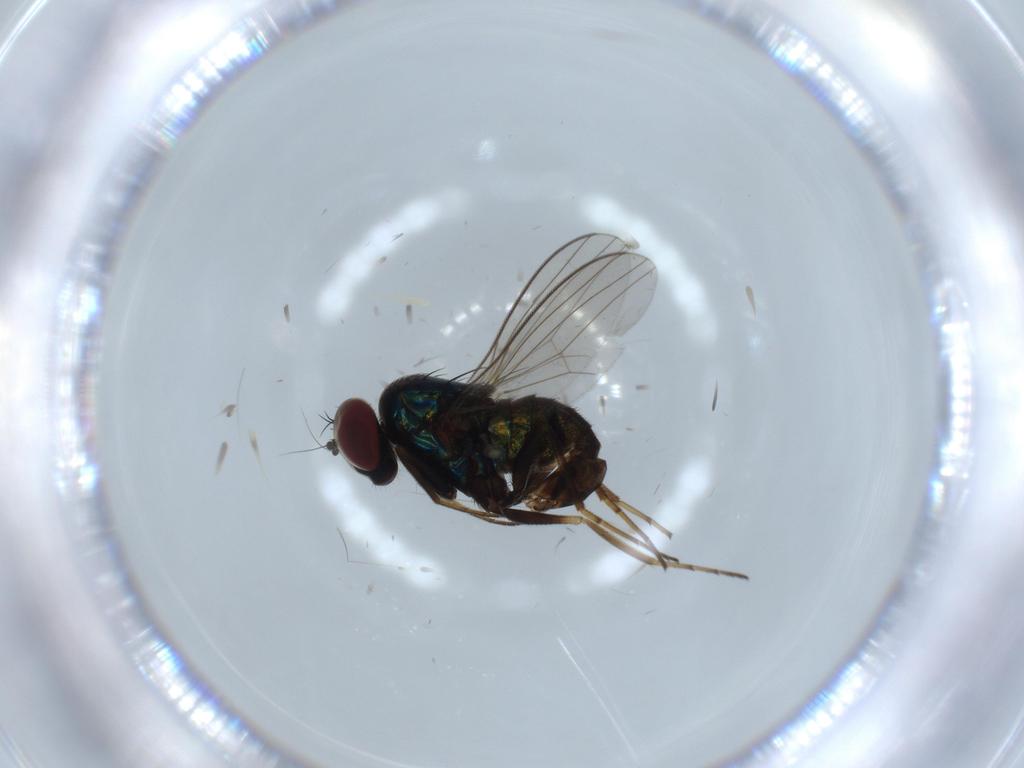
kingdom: Animalia
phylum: Arthropoda
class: Insecta
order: Diptera
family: Dolichopodidae
